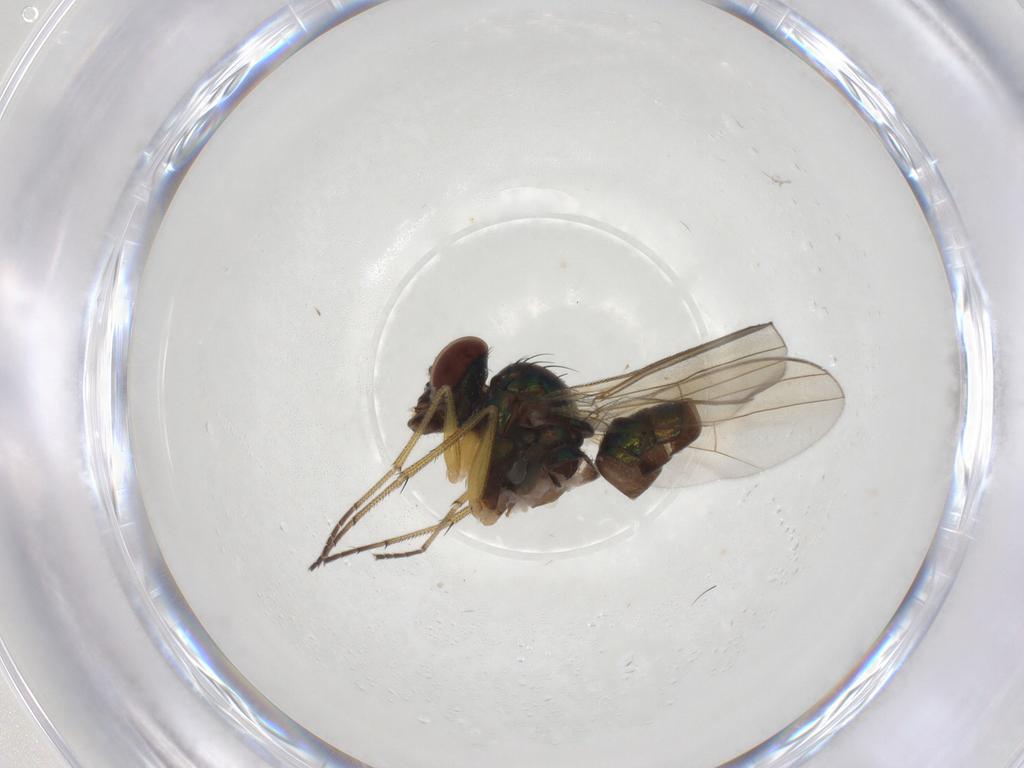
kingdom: Animalia
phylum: Arthropoda
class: Insecta
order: Diptera
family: Dolichopodidae
